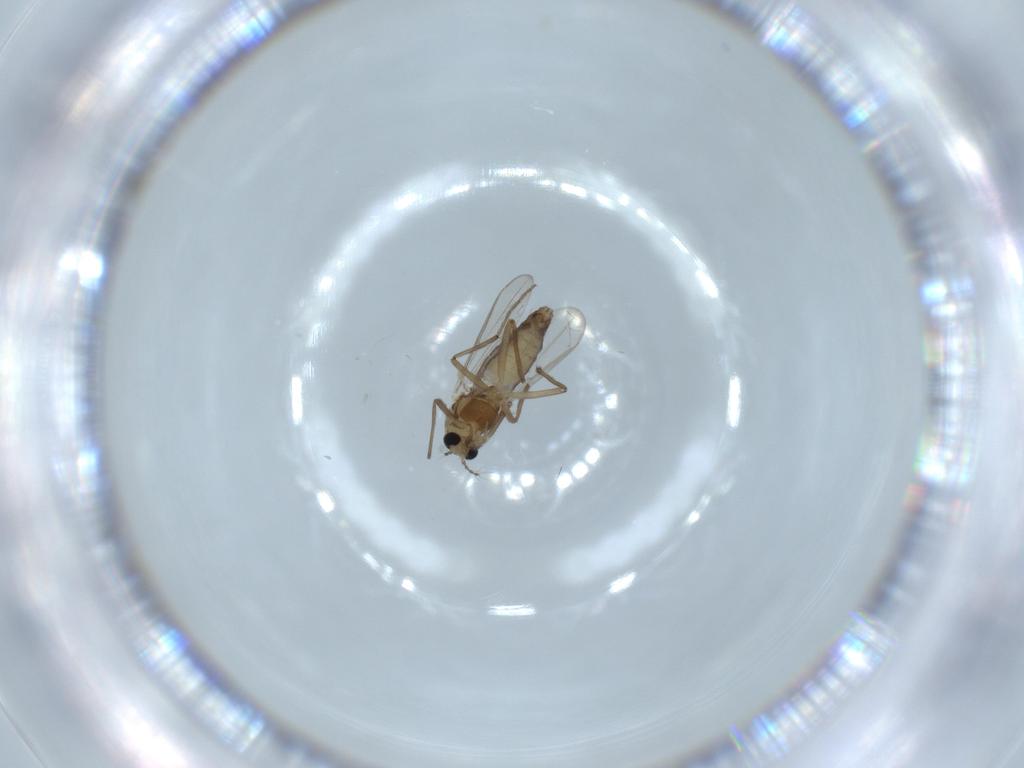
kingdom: Animalia
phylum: Arthropoda
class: Insecta
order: Diptera
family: Chironomidae
